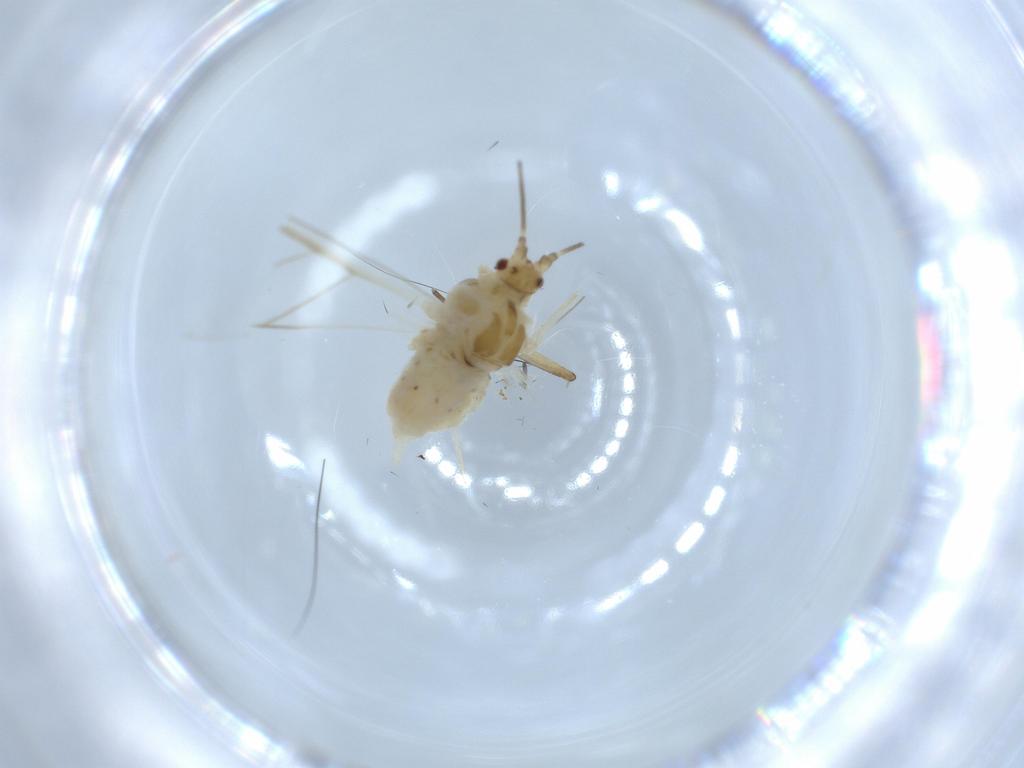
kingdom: Animalia
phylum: Arthropoda
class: Insecta
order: Hemiptera
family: Aphididae
